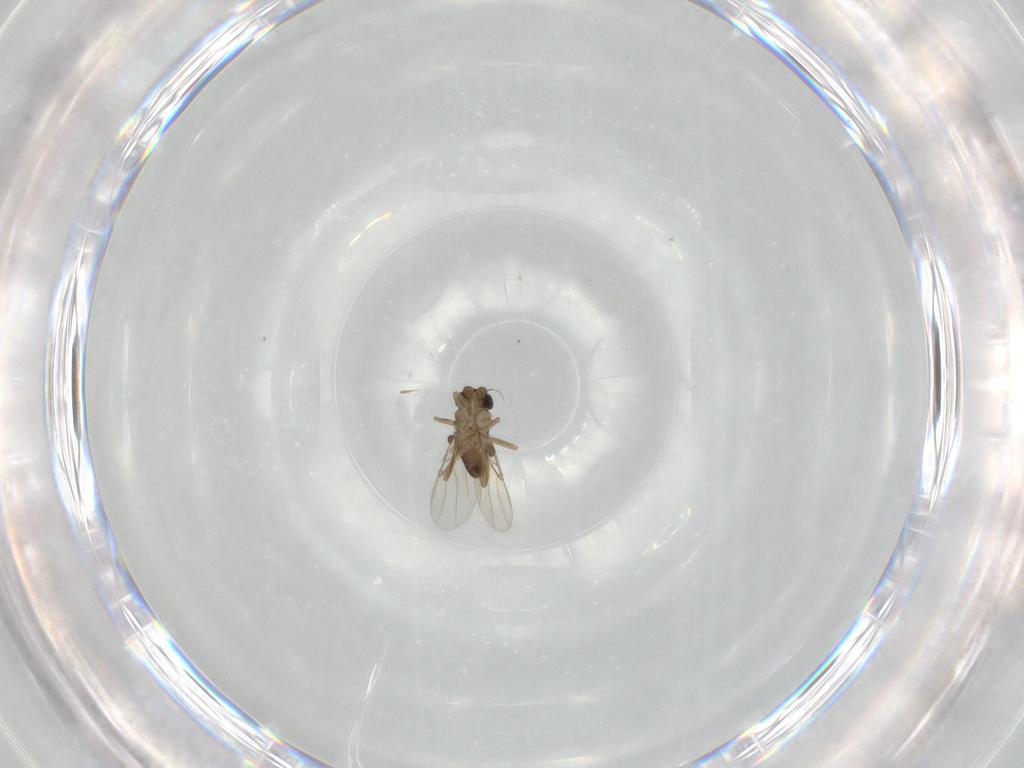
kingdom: Animalia
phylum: Arthropoda
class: Insecta
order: Diptera
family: Phoridae
